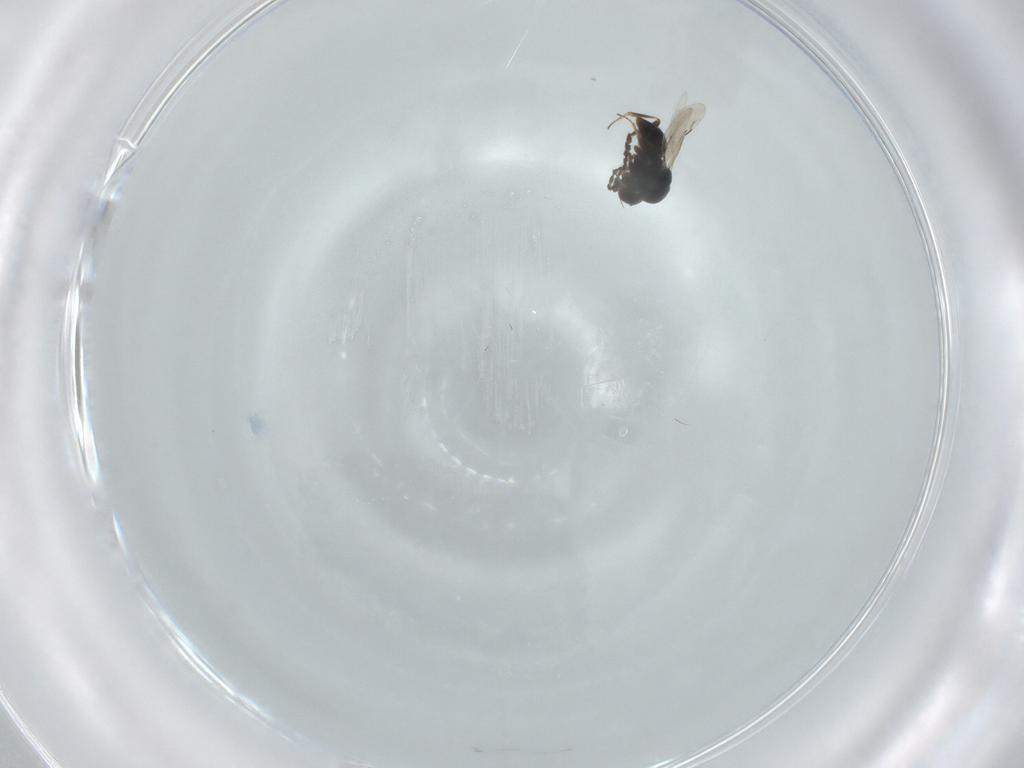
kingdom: Animalia
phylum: Arthropoda
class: Insecta
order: Hymenoptera
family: Ceraphronidae
